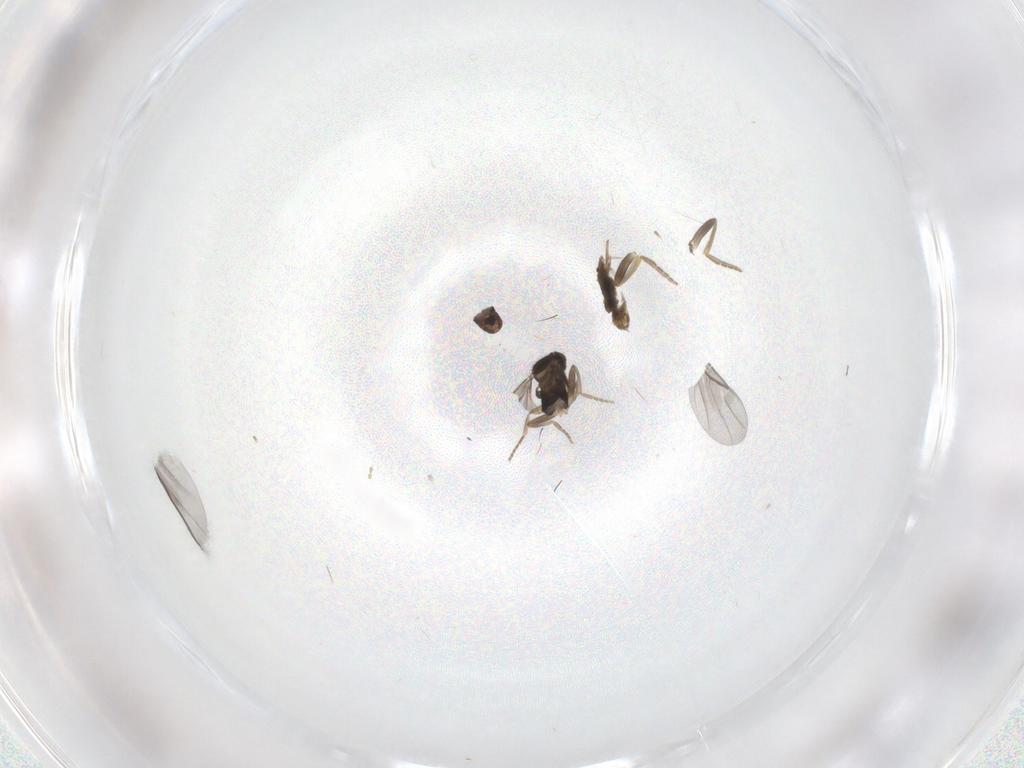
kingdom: Animalia
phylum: Arthropoda
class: Insecta
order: Diptera
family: Cecidomyiidae
